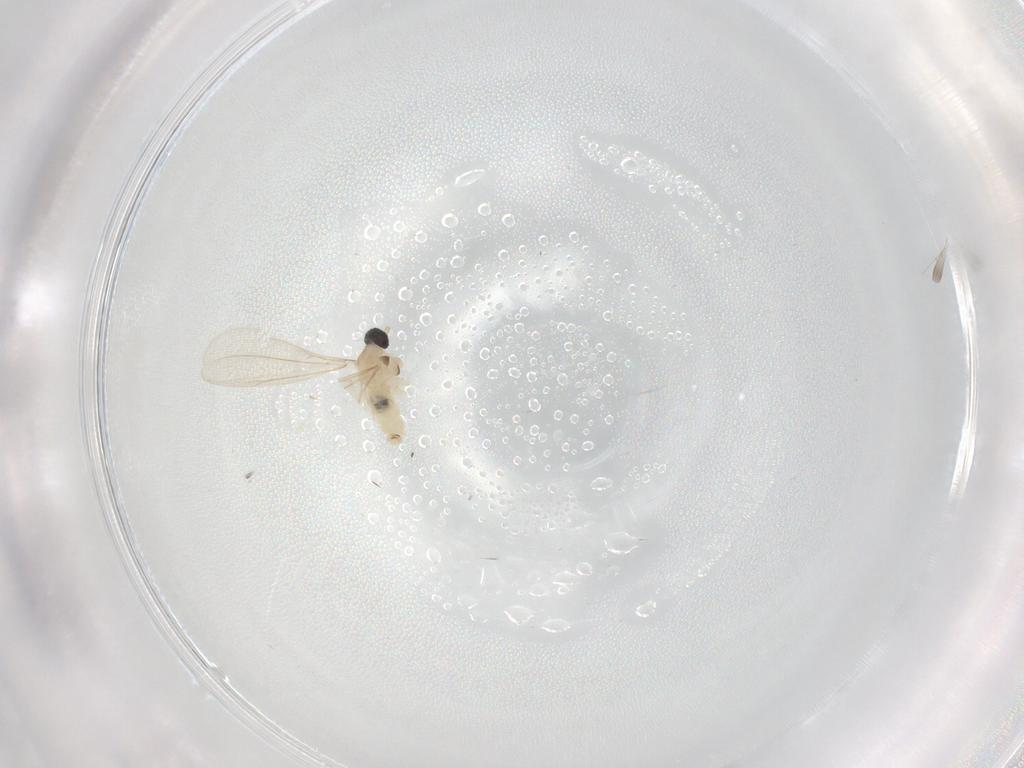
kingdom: Animalia
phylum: Arthropoda
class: Insecta
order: Diptera
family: Cecidomyiidae
